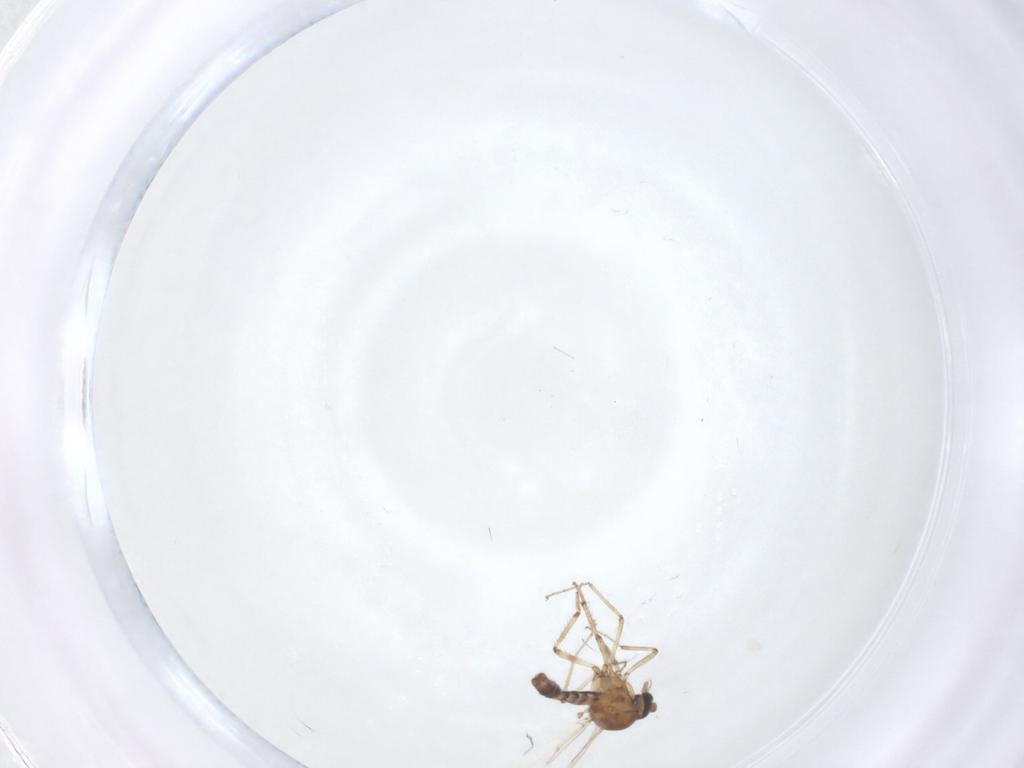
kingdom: Animalia
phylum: Arthropoda
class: Insecta
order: Diptera
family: Ceratopogonidae
